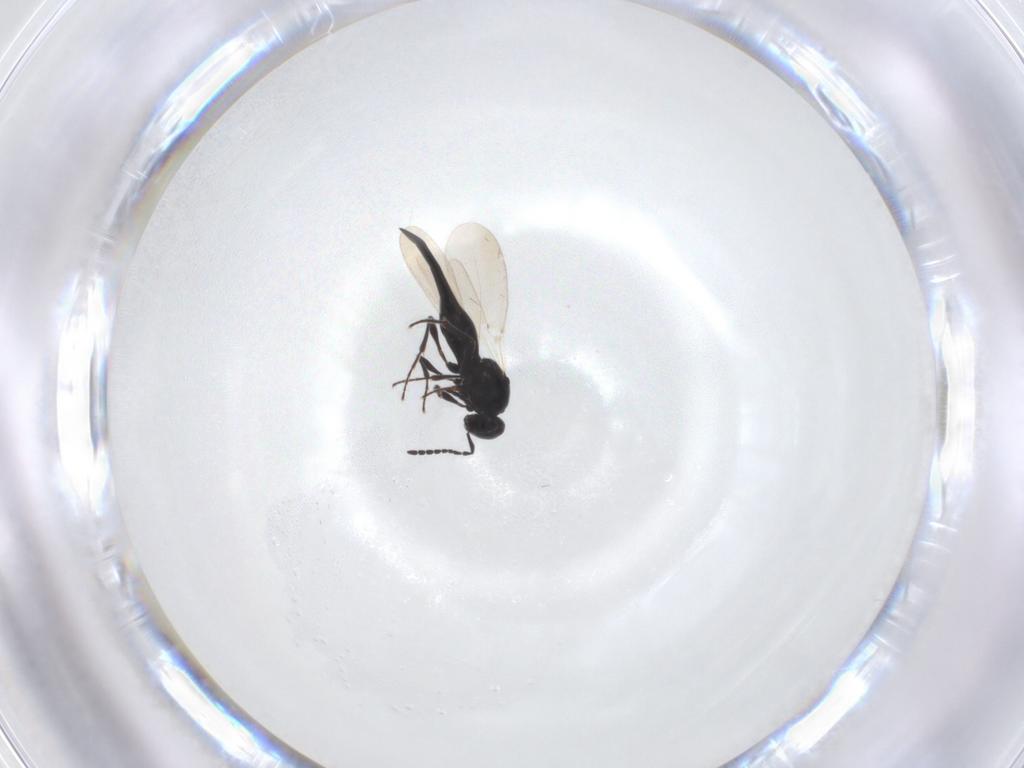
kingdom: Animalia
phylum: Arthropoda
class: Insecta
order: Hymenoptera
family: Platygastridae
